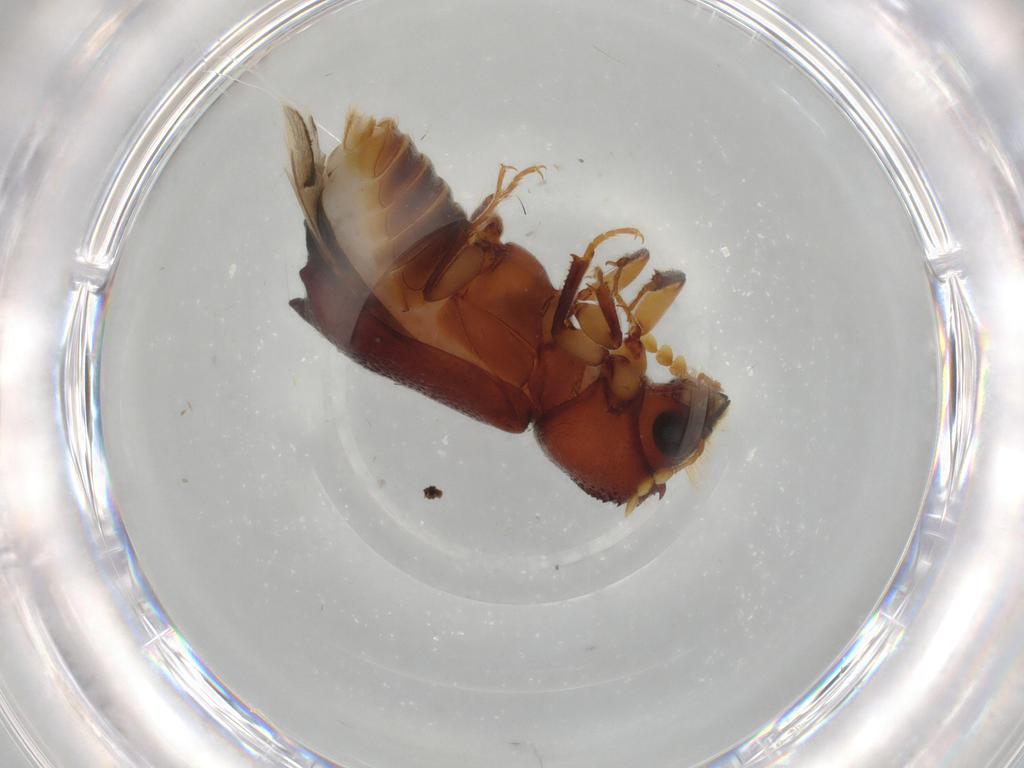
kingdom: Animalia
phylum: Arthropoda
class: Insecta
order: Coleoptera
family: Bostrichidae
